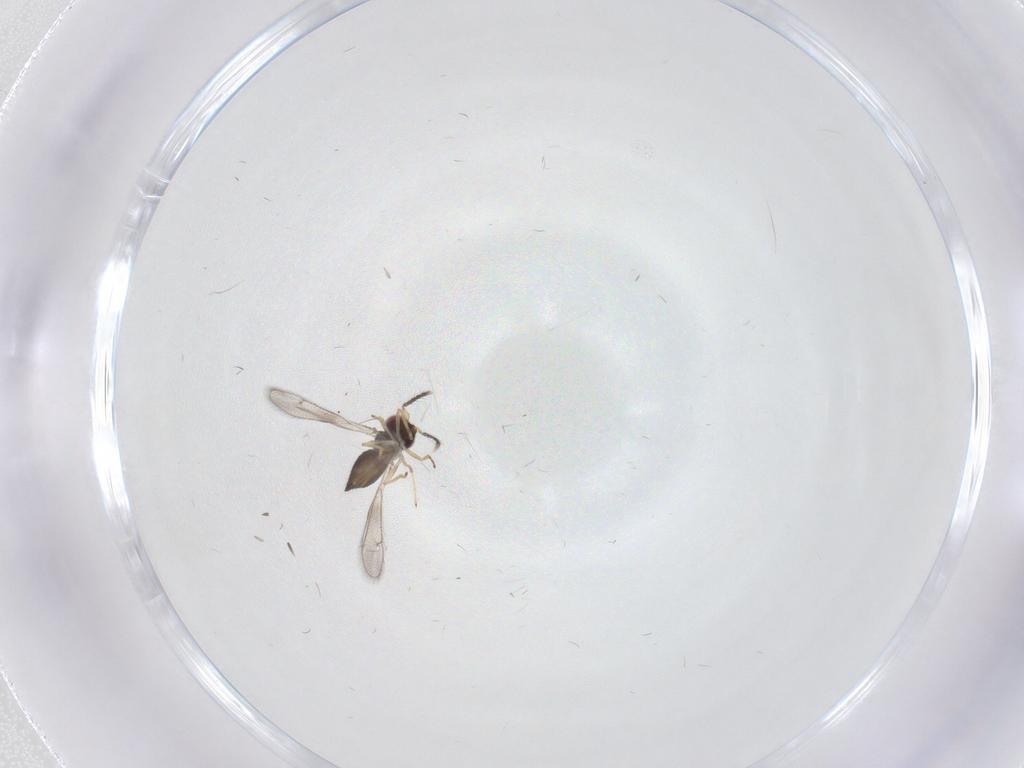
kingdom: Animalia
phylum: Arthropoda
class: Insecta
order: Hymenoptera
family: Eulophidae
